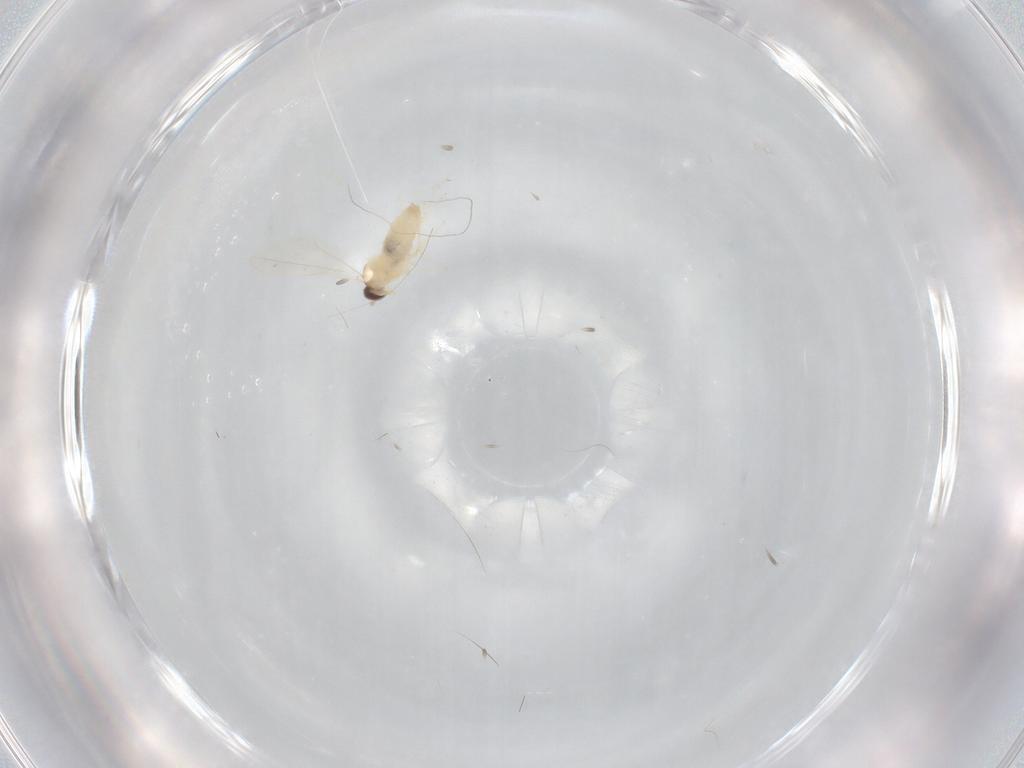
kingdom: Animalia
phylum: Arthropoda
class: Insecta
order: Diptera
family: Cecidomyiidae
